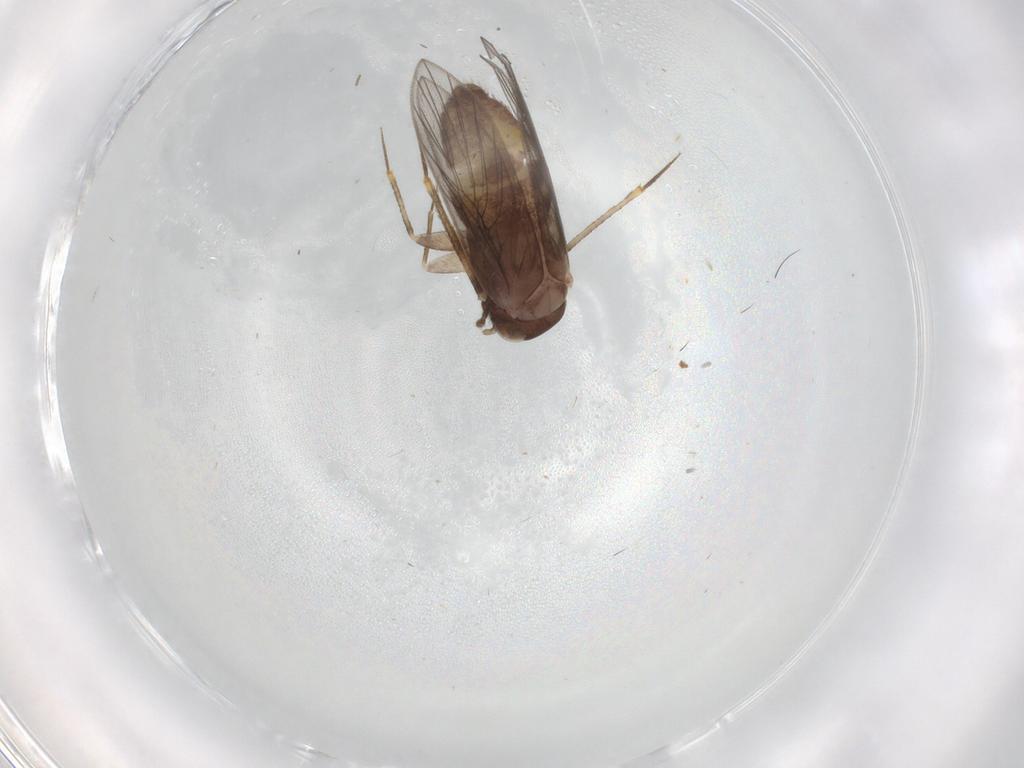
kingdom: Animalia
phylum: Arthropoda
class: Insecta
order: Psocodea
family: Lepidopsocidae
